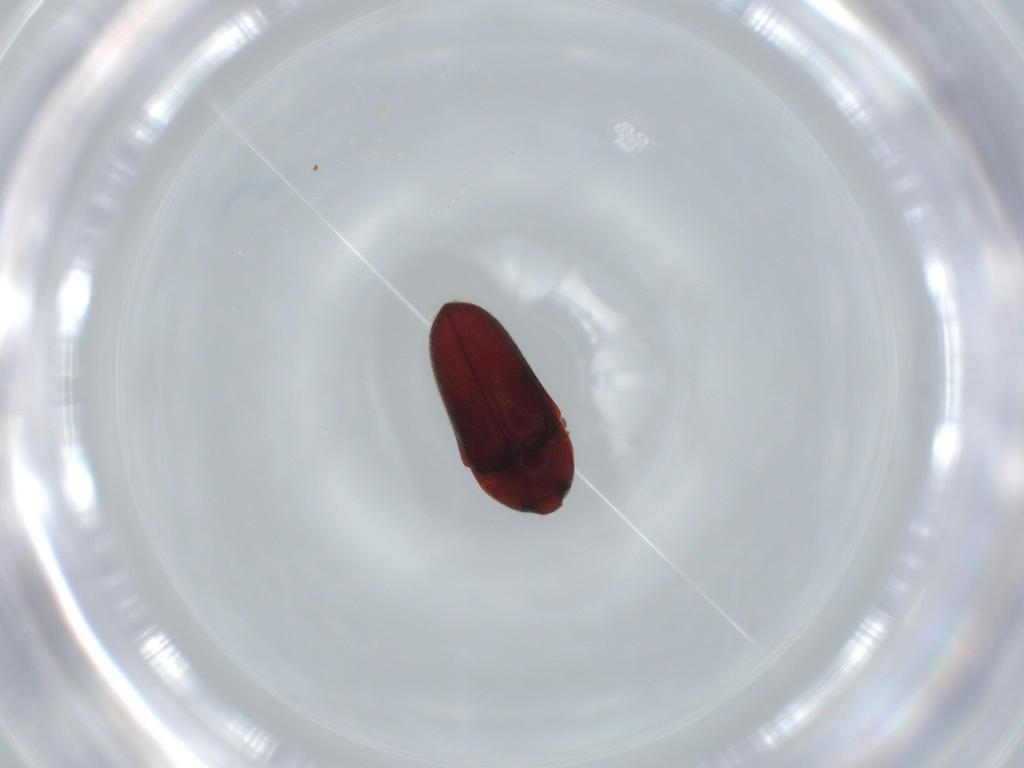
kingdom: Animalia
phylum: Arthropoda
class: Insecta
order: Coleoptera
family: Throscidae
